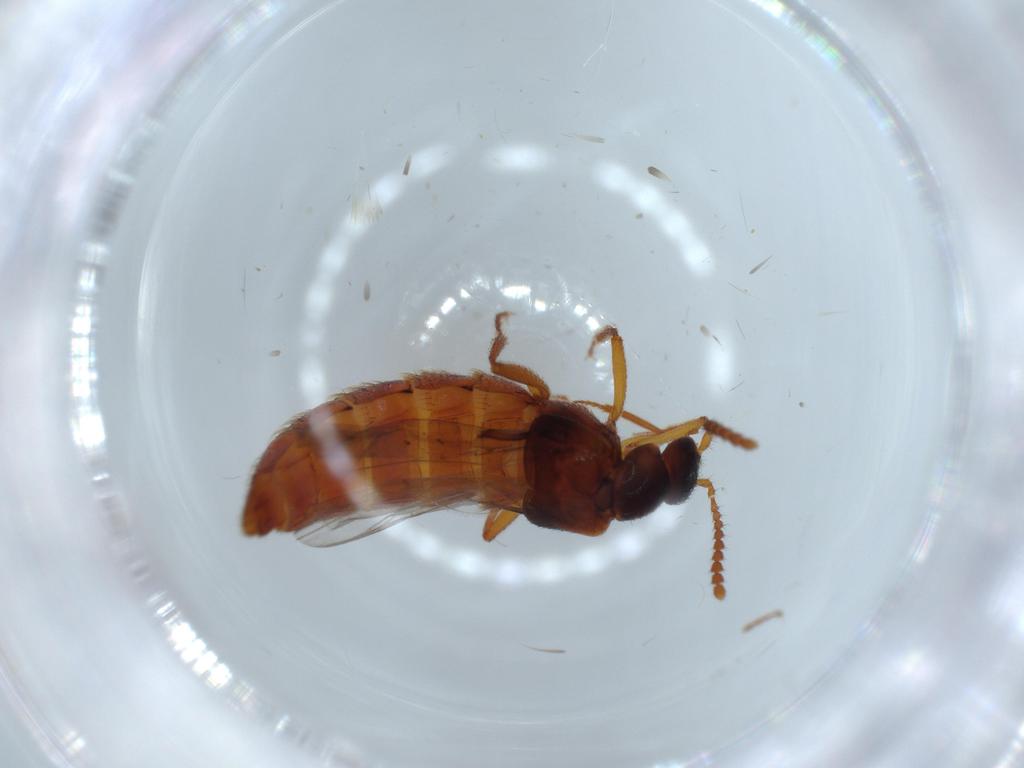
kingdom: Animalia
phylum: Arthropoda
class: Insecta
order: Coleoptera
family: Staphylinidae
